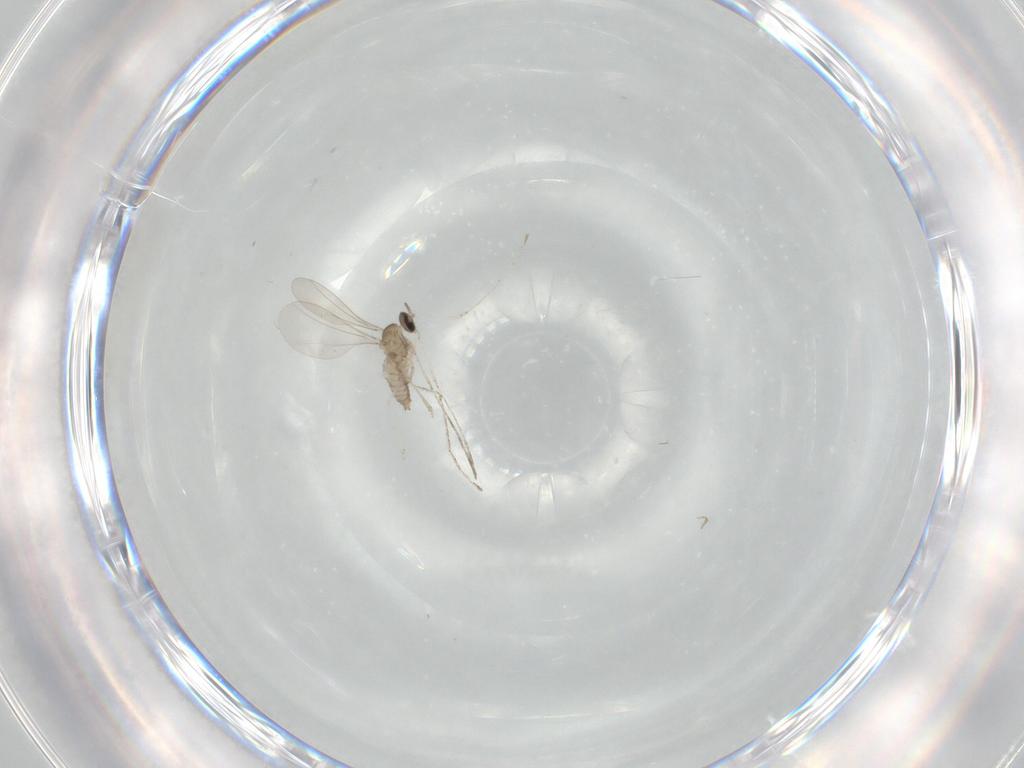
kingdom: Animalia
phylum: Arthropoda
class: Insecta
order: Diptera
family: Cecidomyiidae
